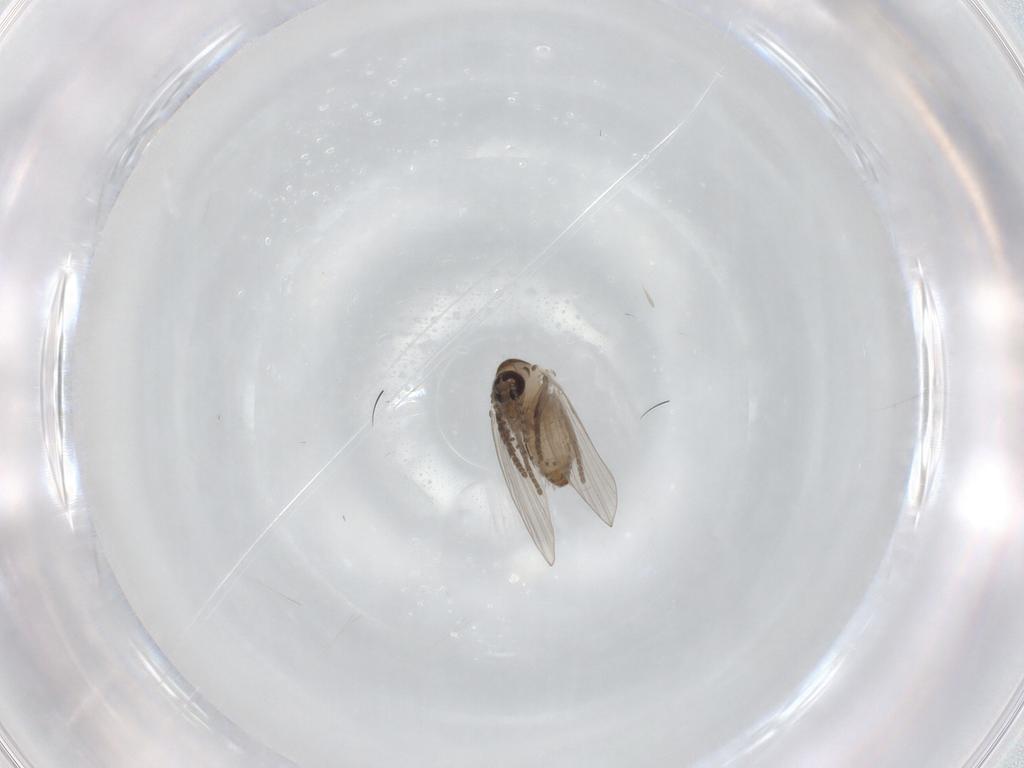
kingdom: Animalia
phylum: Arthropoda
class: Insecta
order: Diptera
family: Psychodidae
